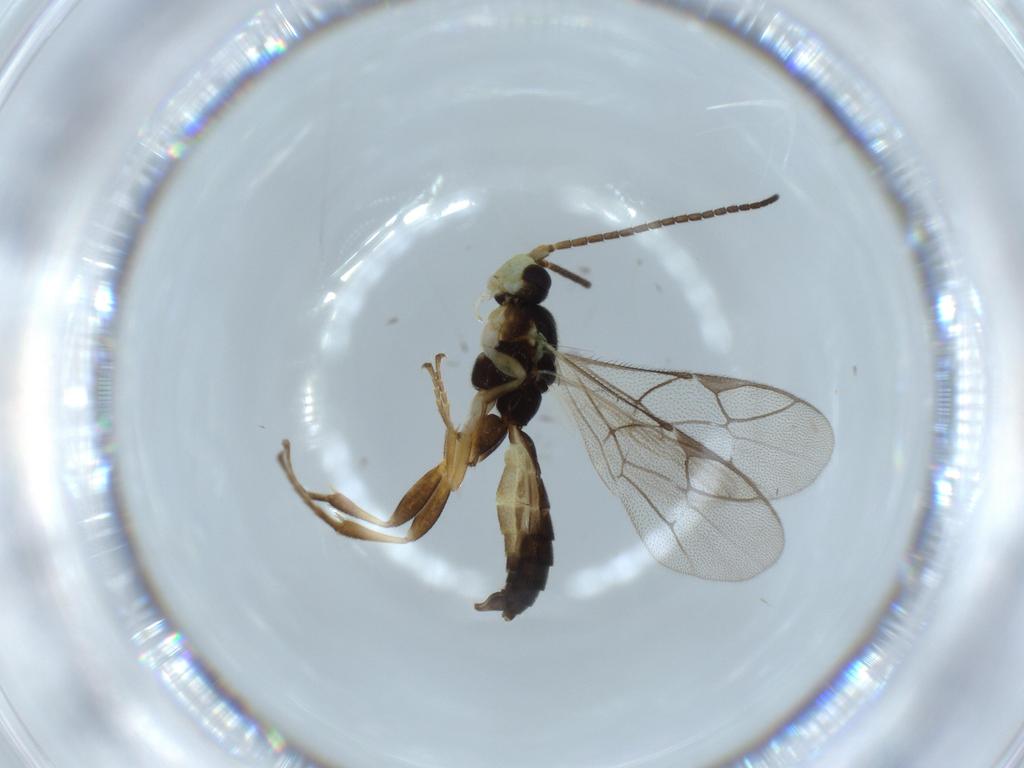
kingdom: Animalia
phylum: Arthropoda
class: Insecta
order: Hymenoptera
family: Ichneumonidae
